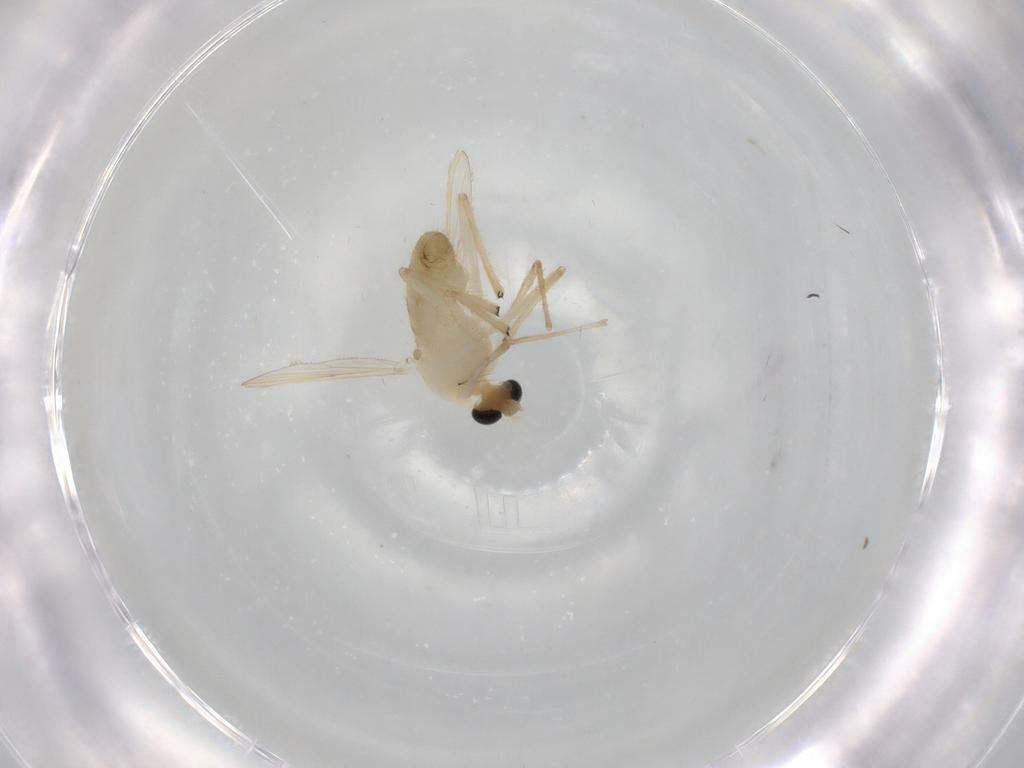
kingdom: Animalia
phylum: Arthropoda
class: Insecta
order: Diptera
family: Chironomidae
